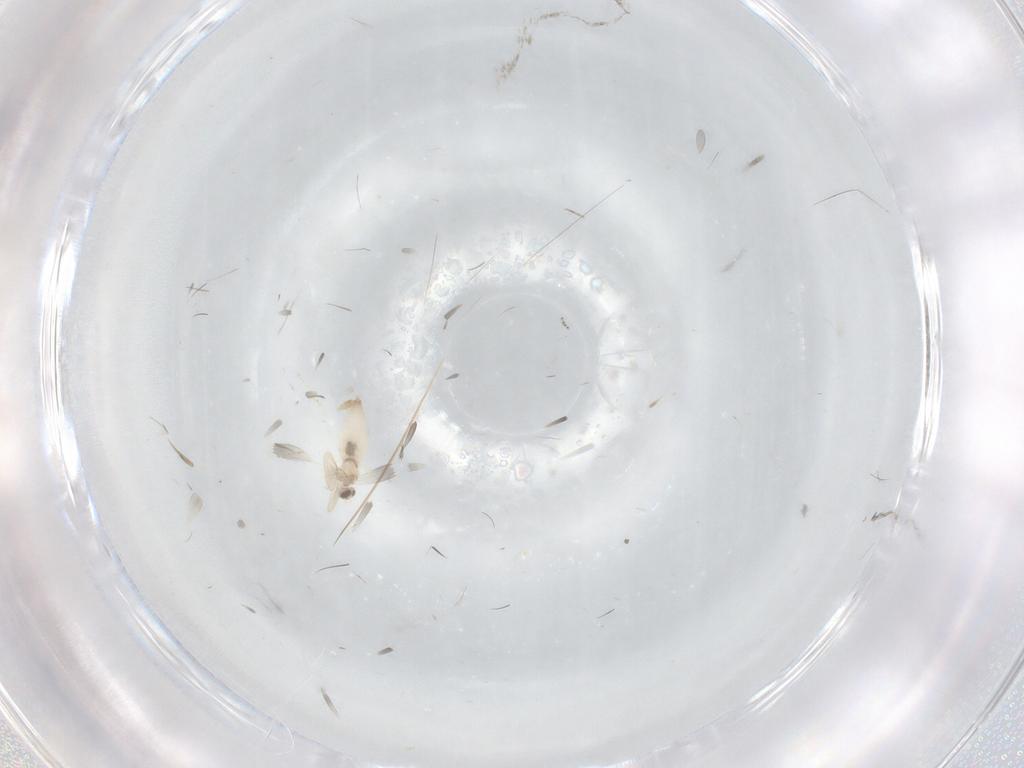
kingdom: Animalia
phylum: Arthropoda
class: Insecta
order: Diptera
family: Cecidomyiidae
